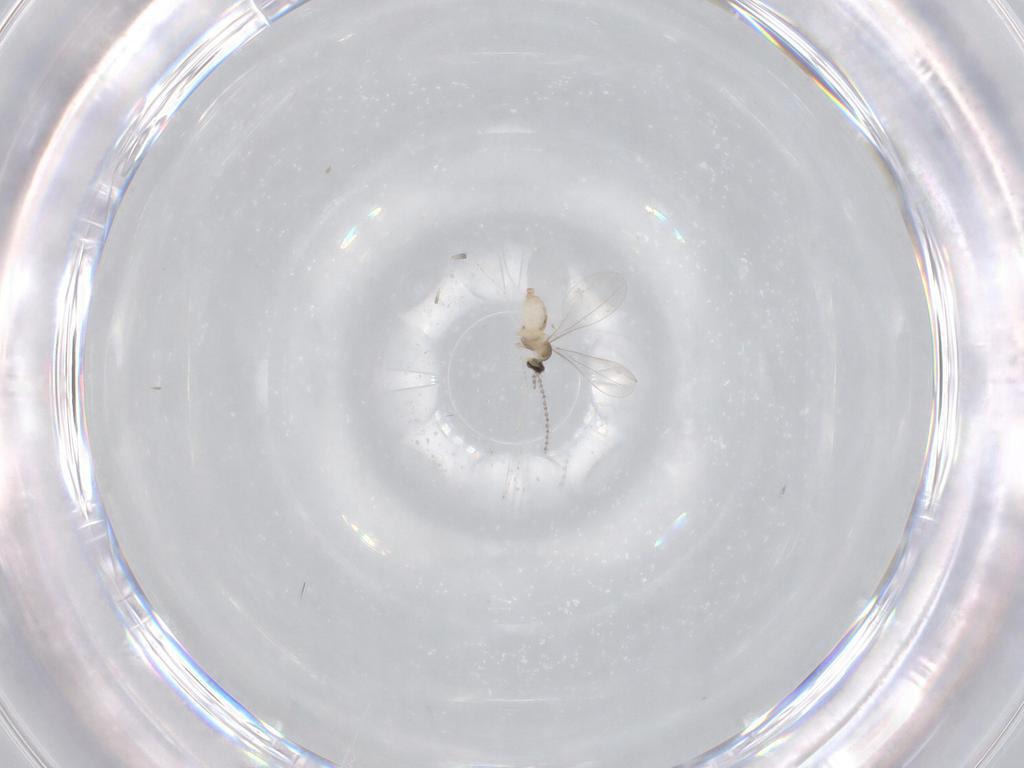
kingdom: Animalia
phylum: Arthropoda
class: Insecta
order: Diptera
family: Cecidomyiidae
